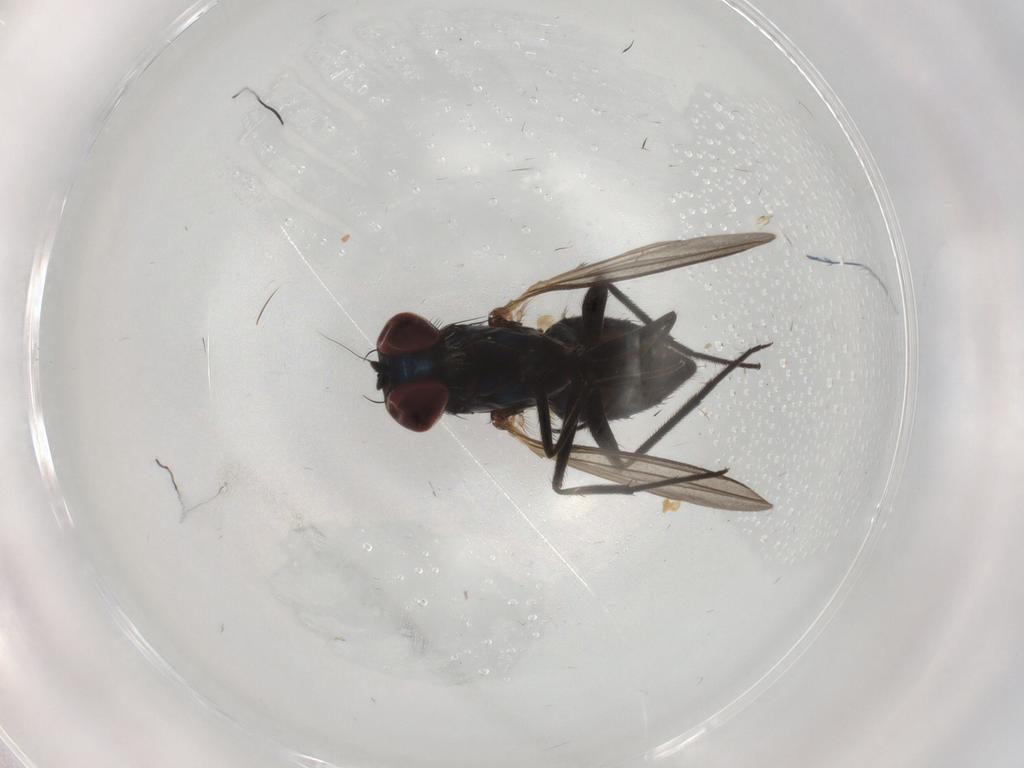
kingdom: Animalia
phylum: Arthropoda
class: Insecta
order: Diptera
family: Dolichopodidae
